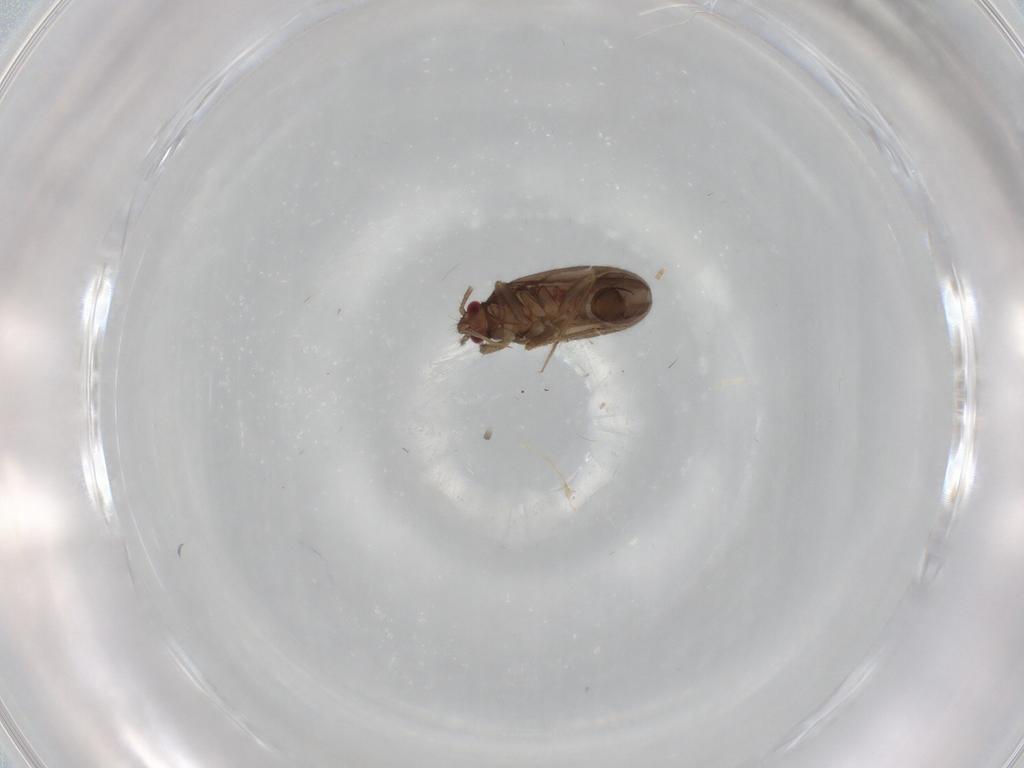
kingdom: Animalia
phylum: Arthropoda
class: Insecta
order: Hemiptera
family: Ceratocombidae
